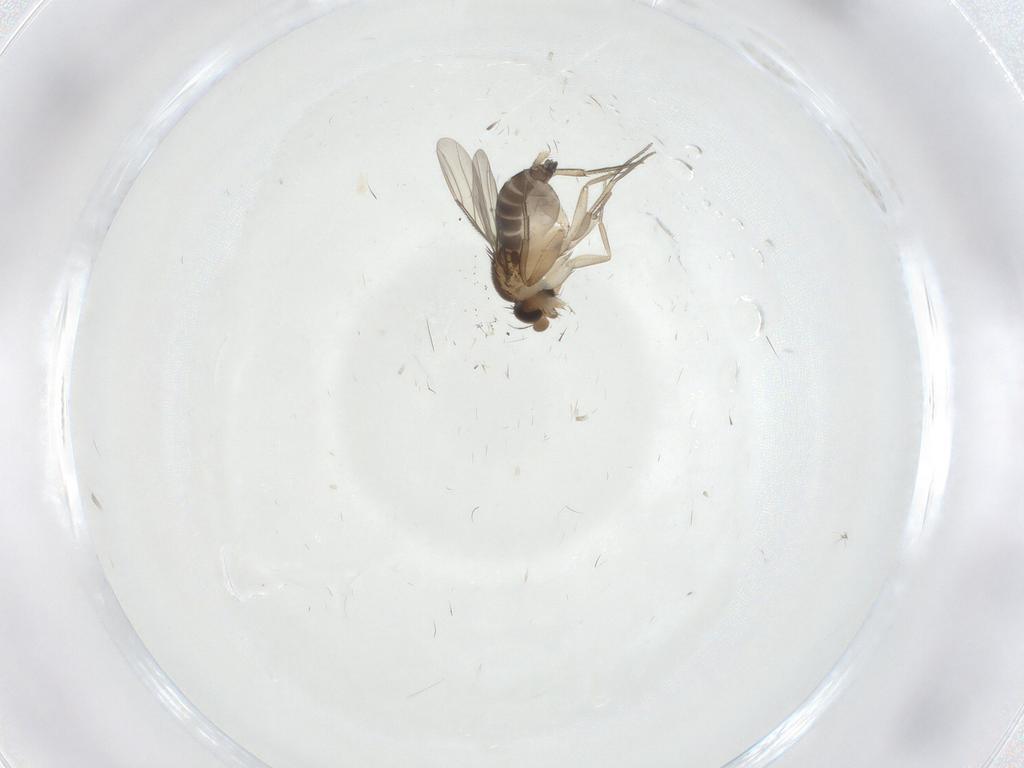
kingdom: Animalia
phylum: Arthropoda
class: Insecta
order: Diptera
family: Phoridae
